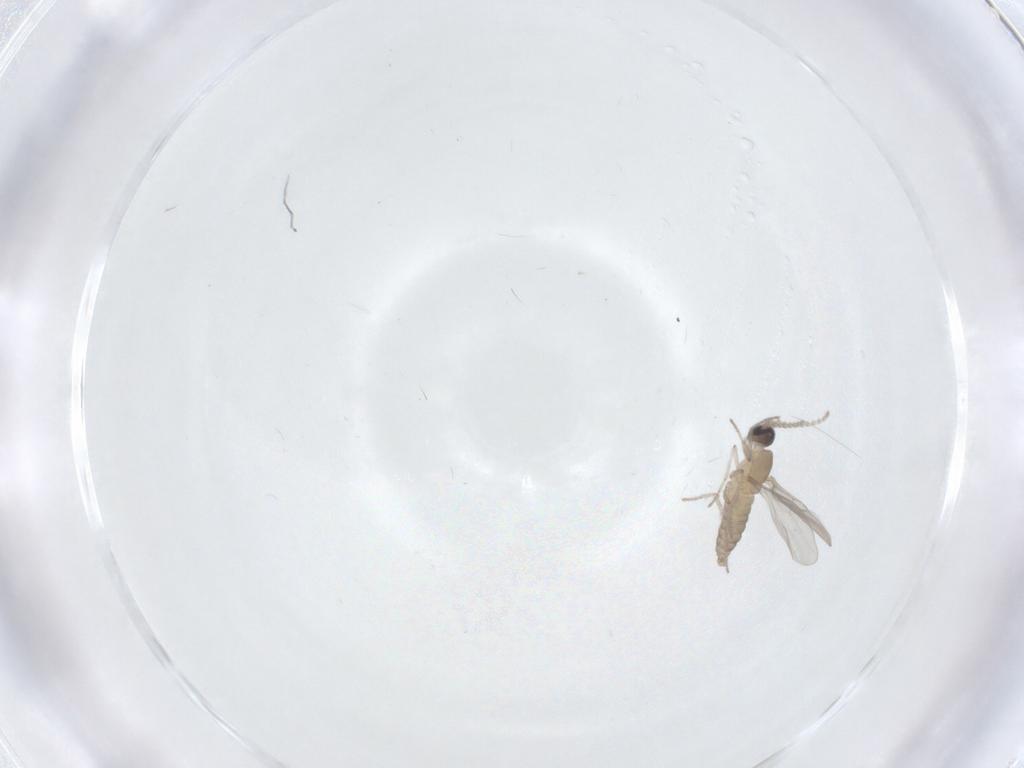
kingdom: Animalia
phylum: Arthropoda
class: Insecta
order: Diptera
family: Cecidomyiidae
